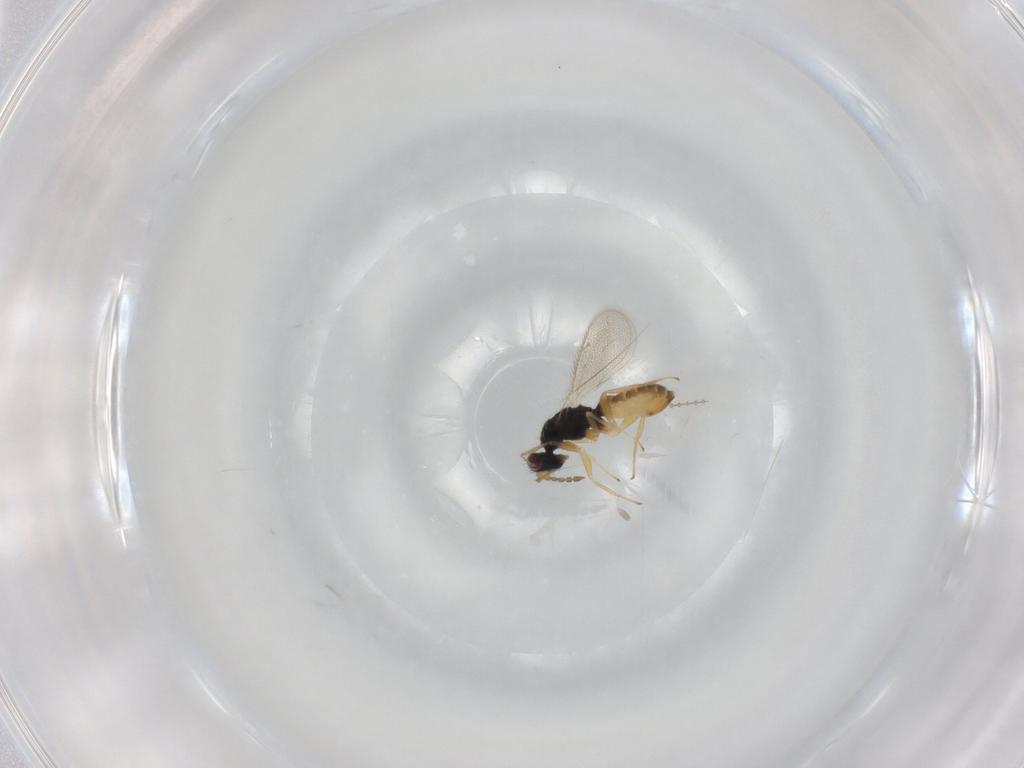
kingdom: Animalia
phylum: Arthropoda
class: Insecta
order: Hymenoptera
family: Eulophidae
